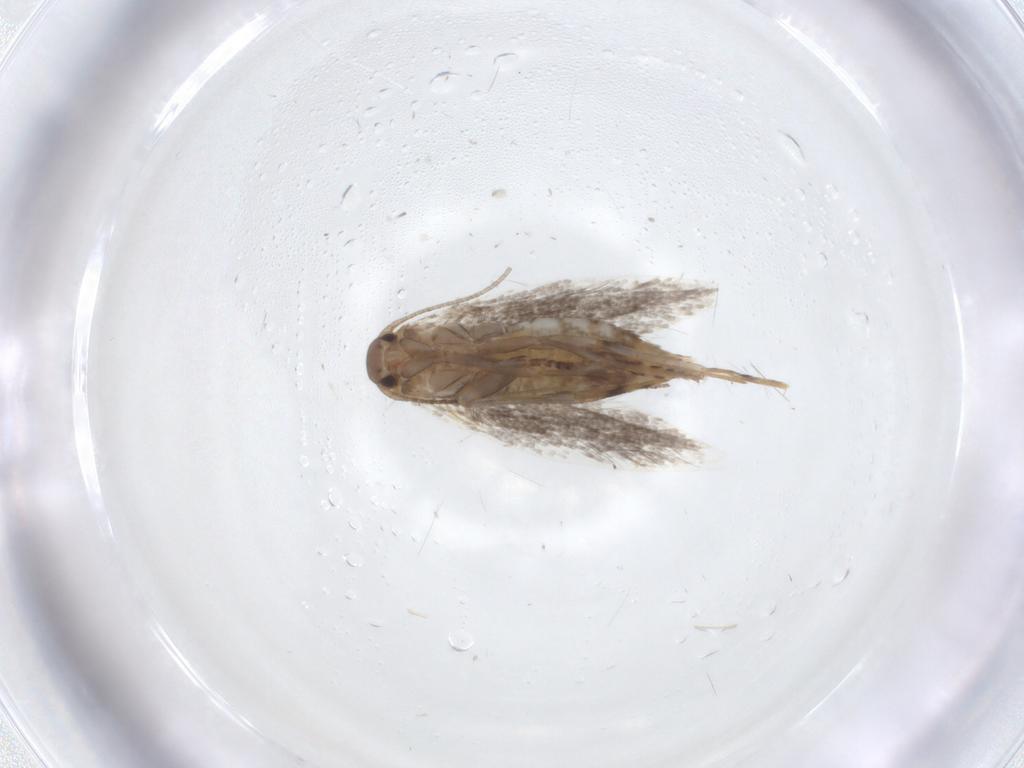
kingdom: Animalia
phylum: Arthropoda
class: Insecta
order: Lepidoptera
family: Elachistidae
